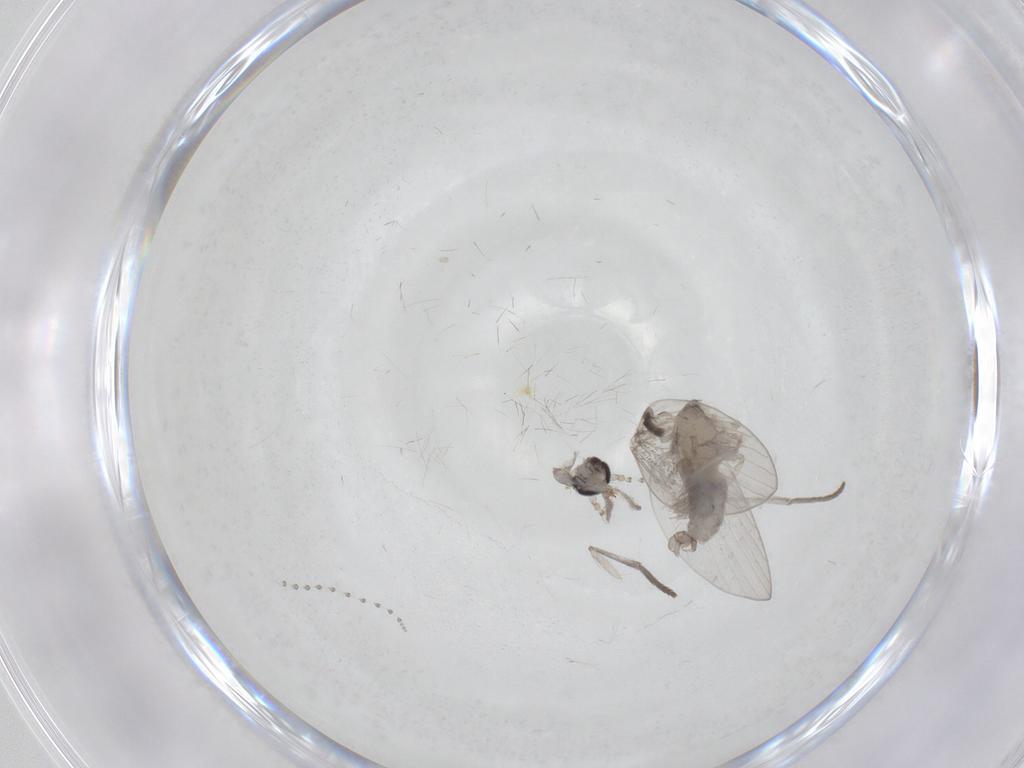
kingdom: Animalia
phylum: Arthropoda
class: Insecta
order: Diptera
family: Psychodidae
